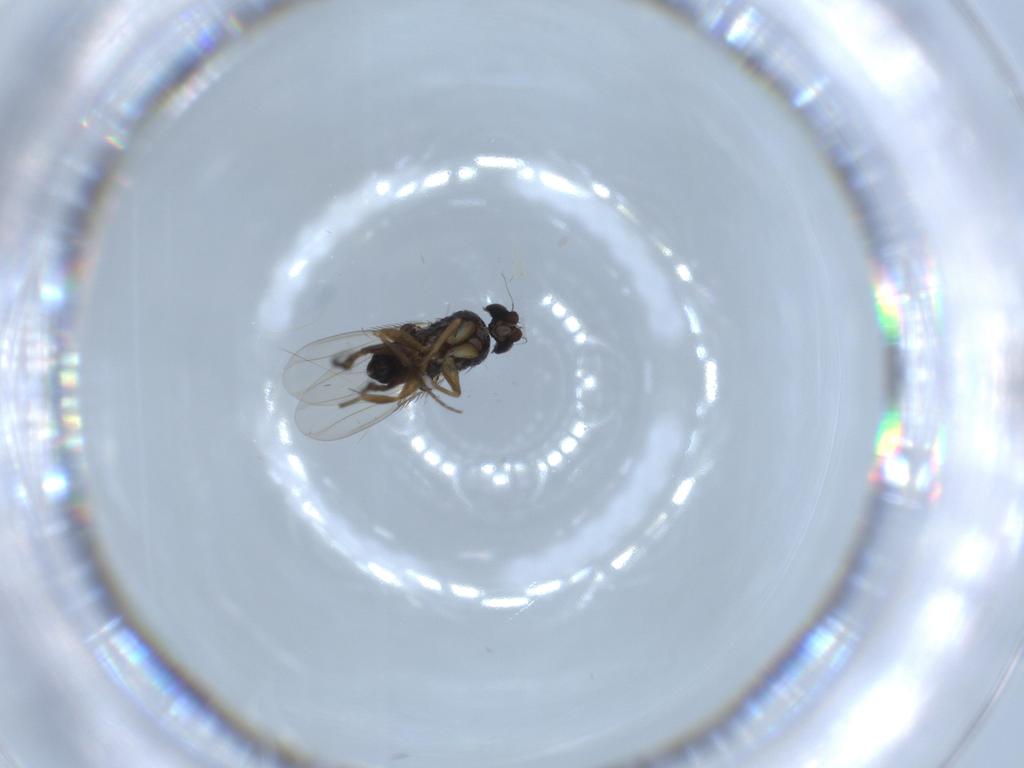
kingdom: Animalia
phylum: Arthropoda
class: Insecta
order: Diptera
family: Phoridae
